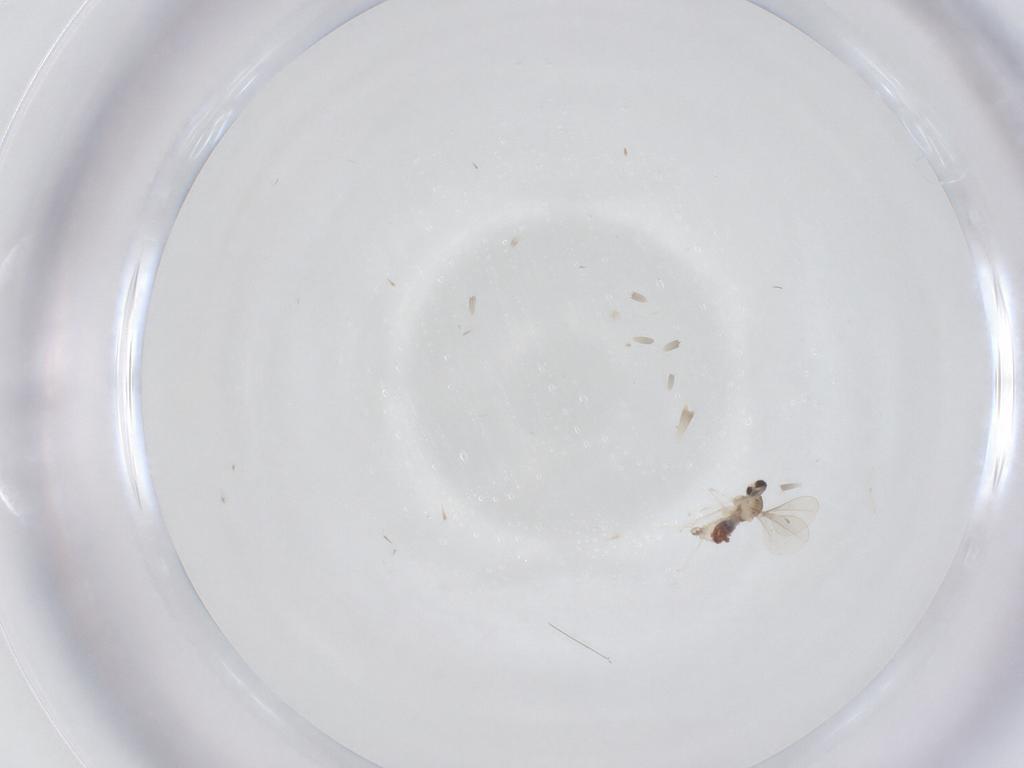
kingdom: Animalia
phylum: Arthropoda
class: Insecta
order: Diptera
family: Cecidomyiidae
